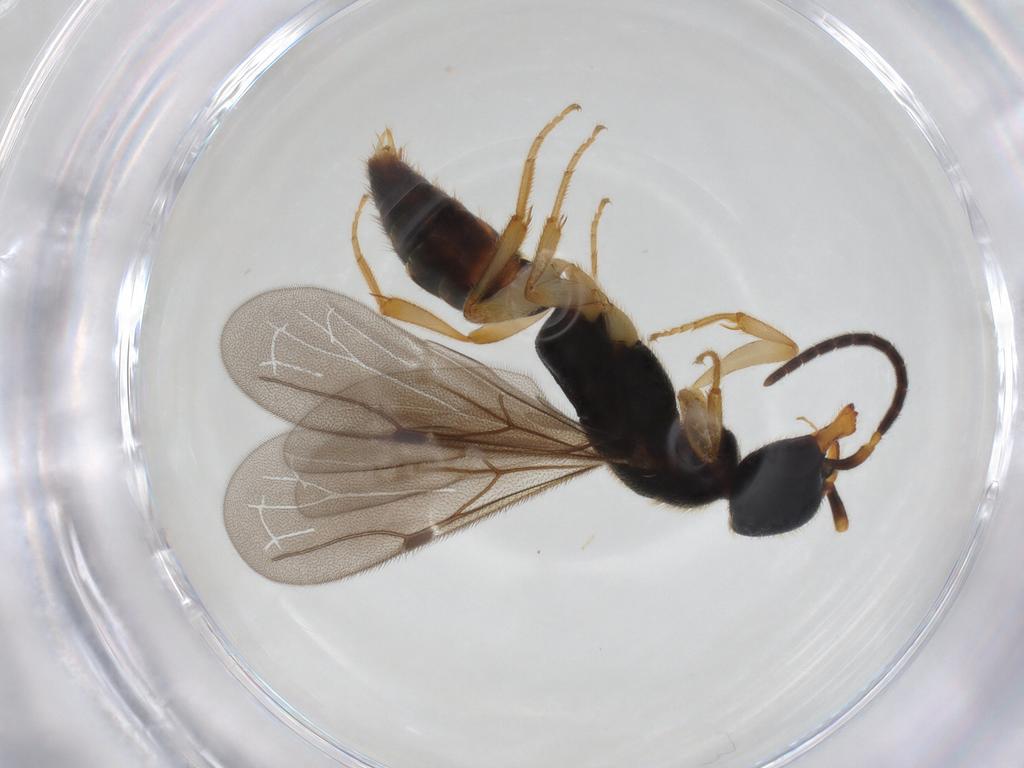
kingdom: Animalia
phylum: Arthropoda
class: Insecta
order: Hymenoptera
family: Bethylidae
